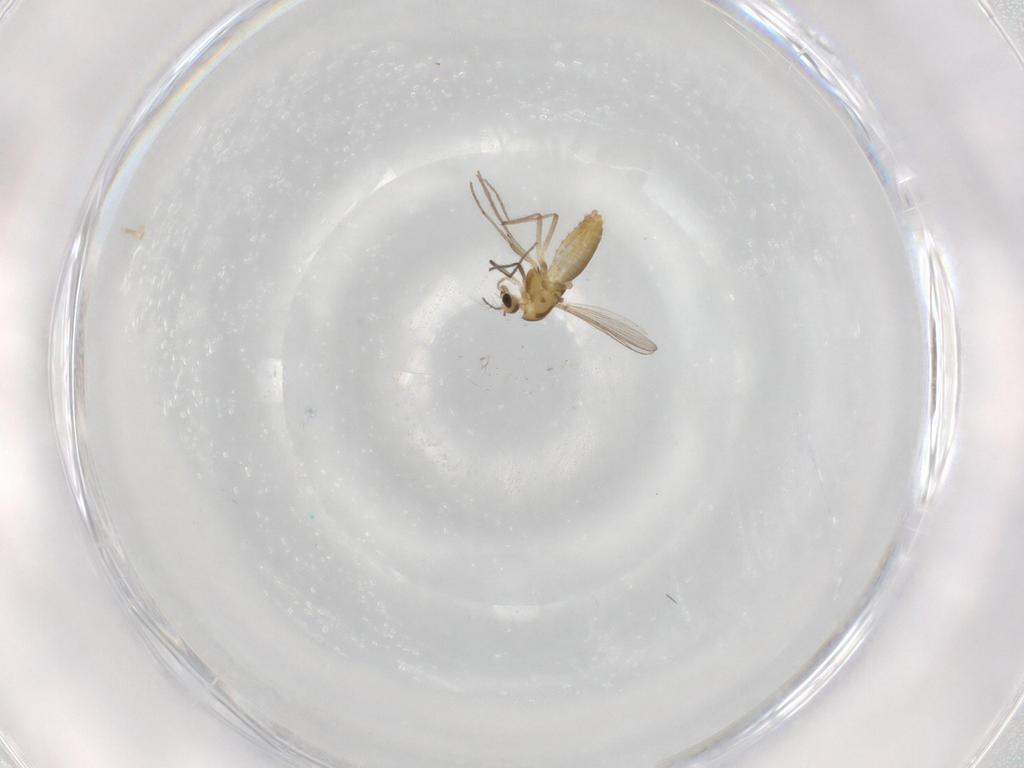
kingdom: Animalia
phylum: Arthropoda
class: Insecta
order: Diptera
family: Chironomidae
